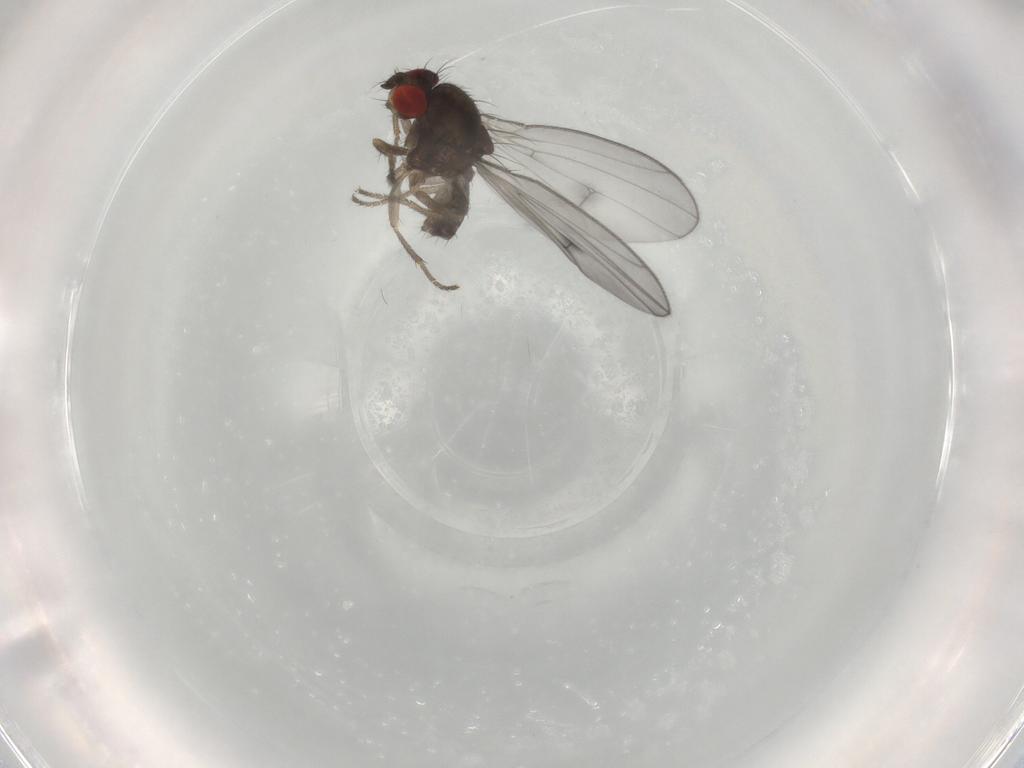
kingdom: Animalia
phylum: Arthropoda
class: Insecta
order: Diptera
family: Drosophilidae
